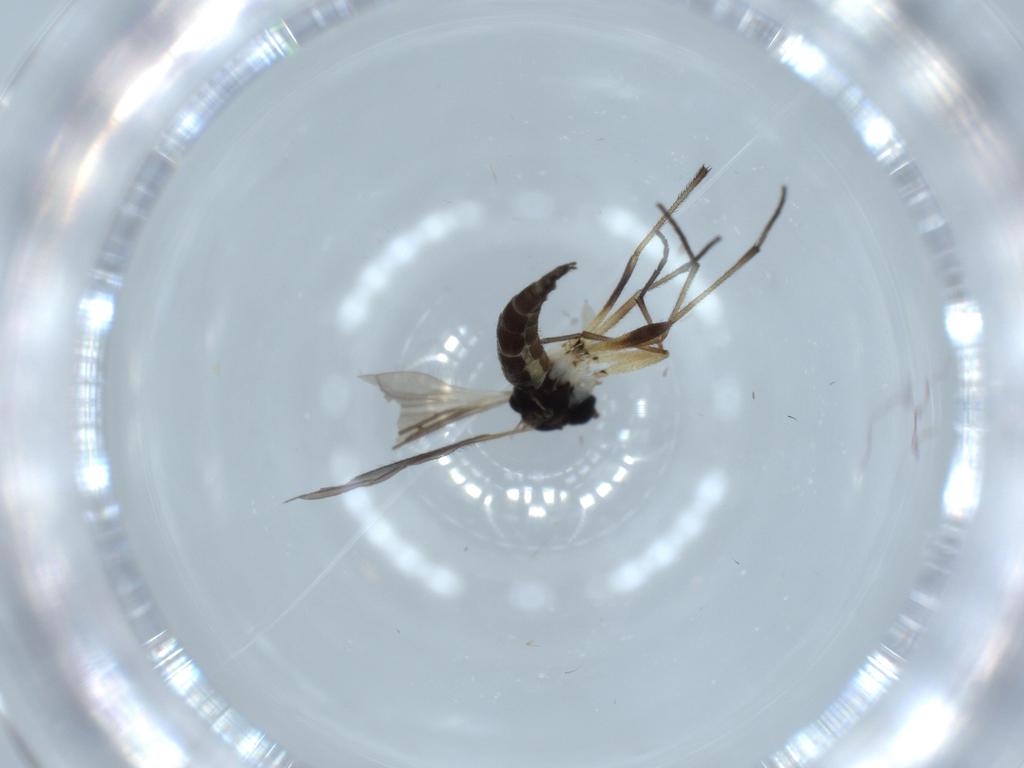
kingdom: Animalia
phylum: Arthropoda
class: Insecta
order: Diptera
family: Sciaridae
